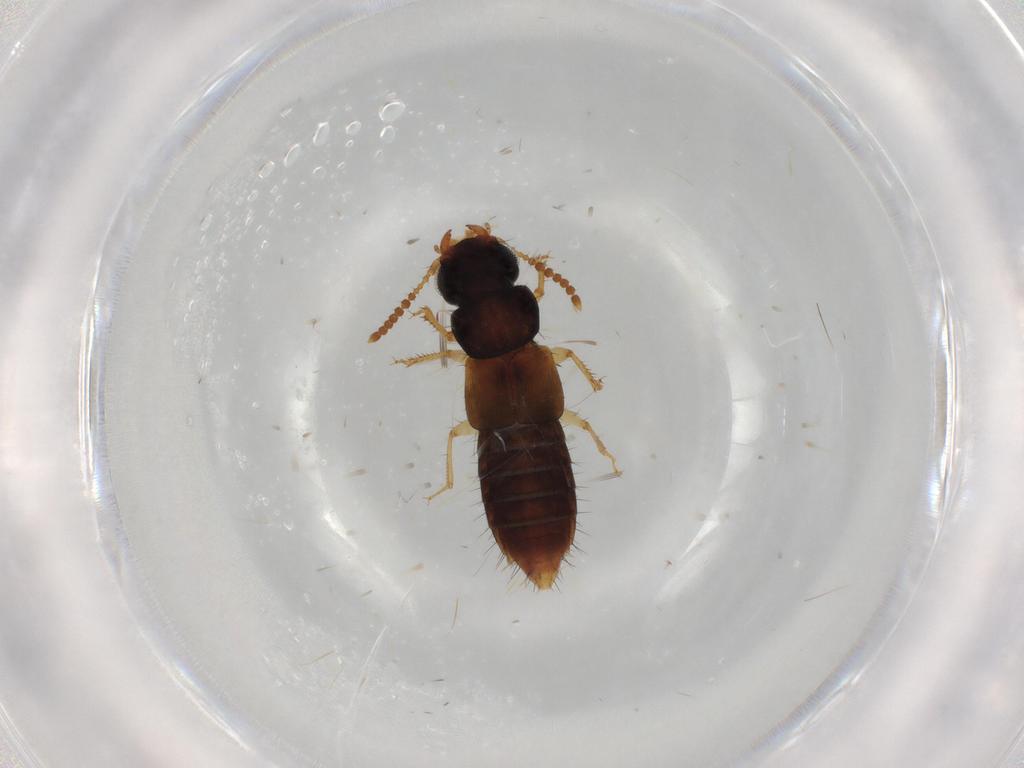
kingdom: Animalia
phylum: Arthropoda
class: Insecta
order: Coleoptera
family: Staphylinidae
